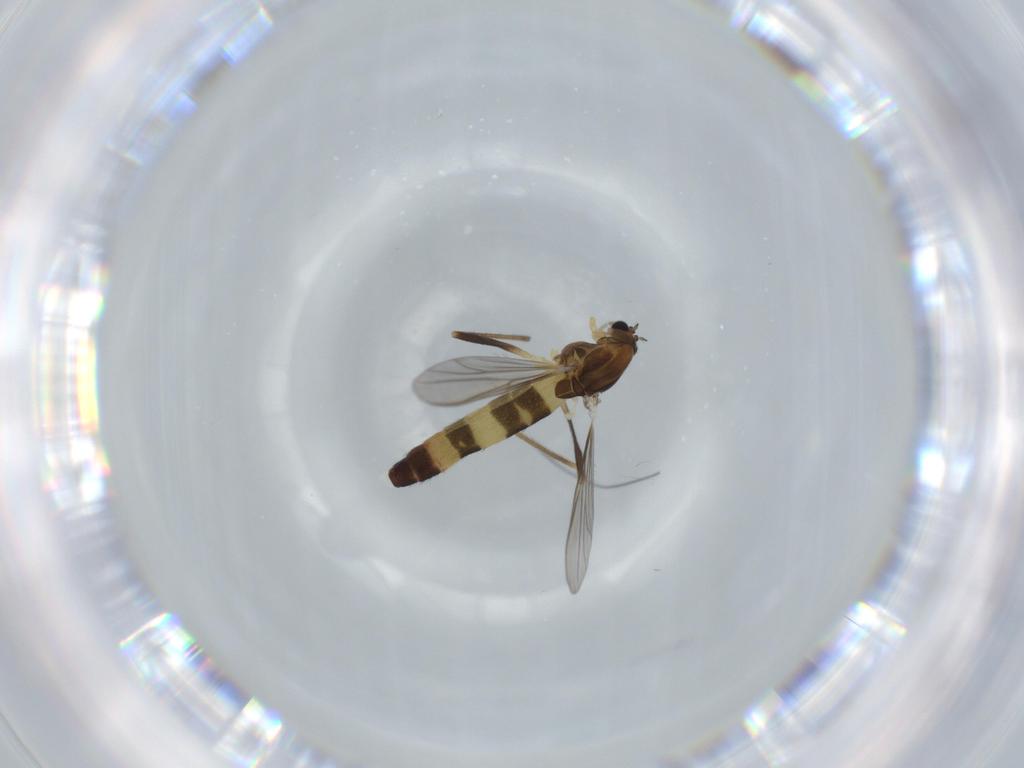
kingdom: Animalia
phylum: Arthropoda
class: Insecta
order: Diptera
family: Chironomidae
